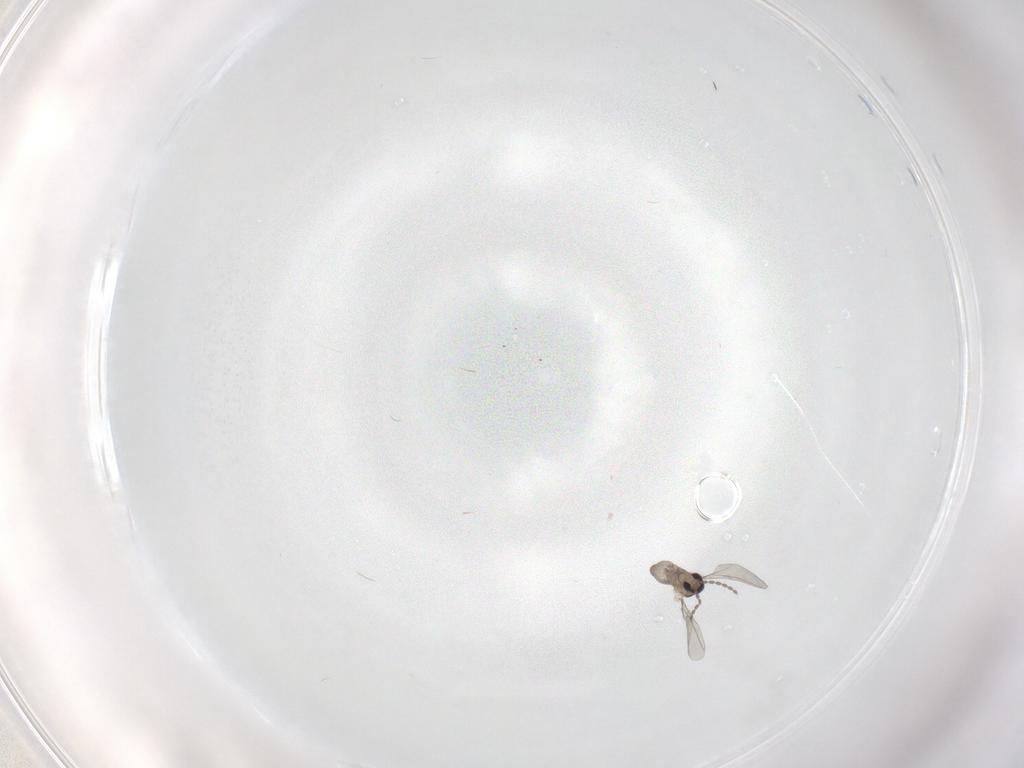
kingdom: Animalia
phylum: Arthropoda
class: Insecta
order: Diptera
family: Cecidomyiidae
